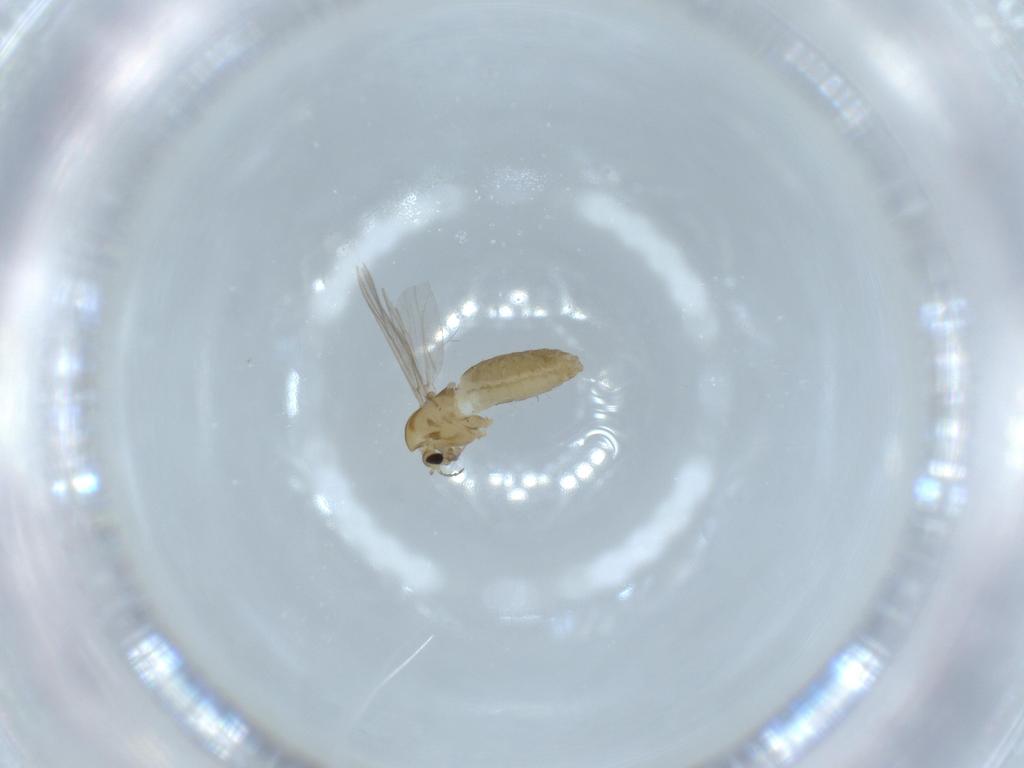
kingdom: Animalia
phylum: Arthropoda
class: Insecta
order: Diptera
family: Chironomidae
